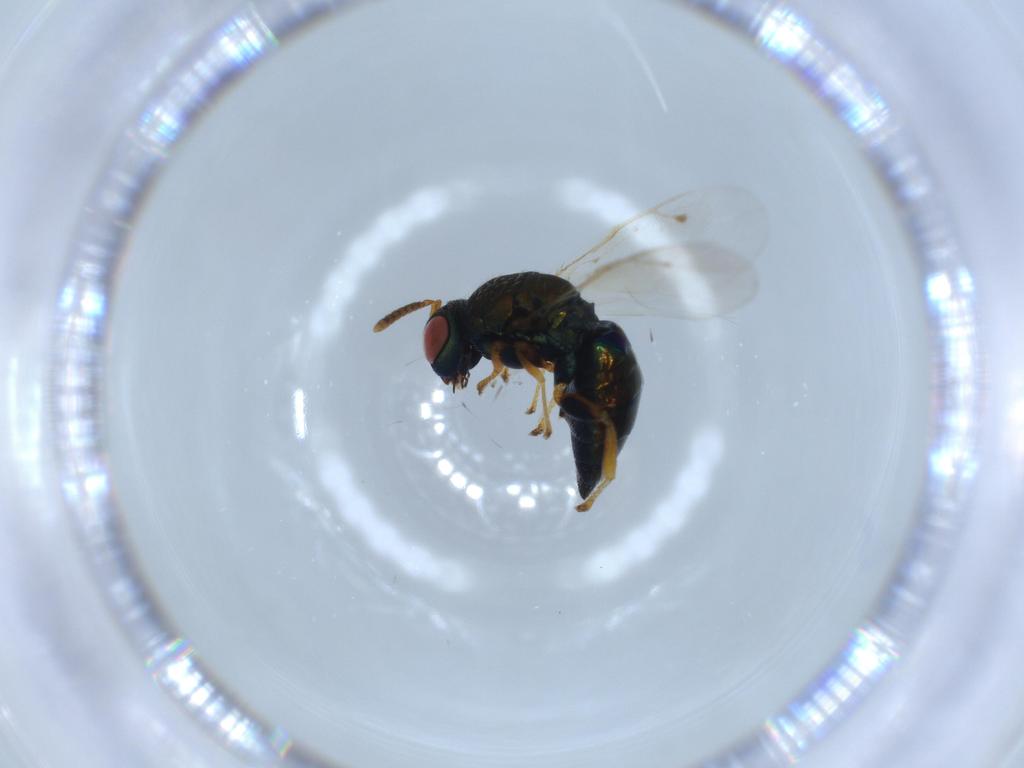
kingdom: Animalia
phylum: Arthropoda
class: Insecta
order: Hymenoptera
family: Pteromalidae
